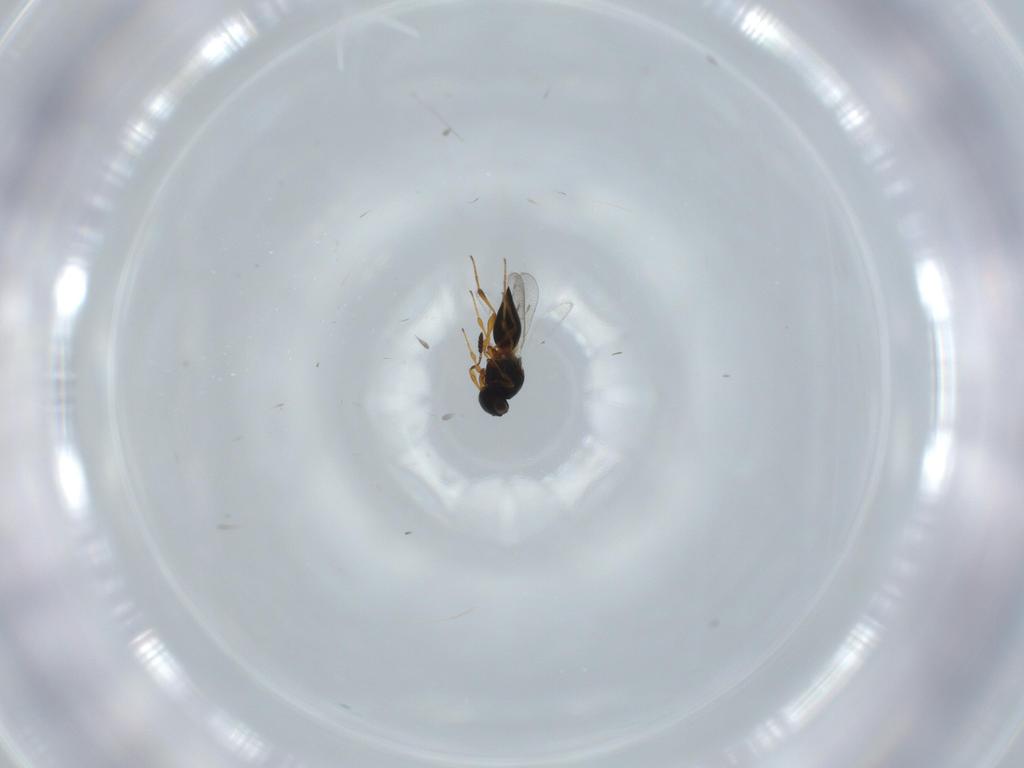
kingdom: Animalia
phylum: Arthropoda
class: Insecta
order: Hymenoptera
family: Platygastridae
